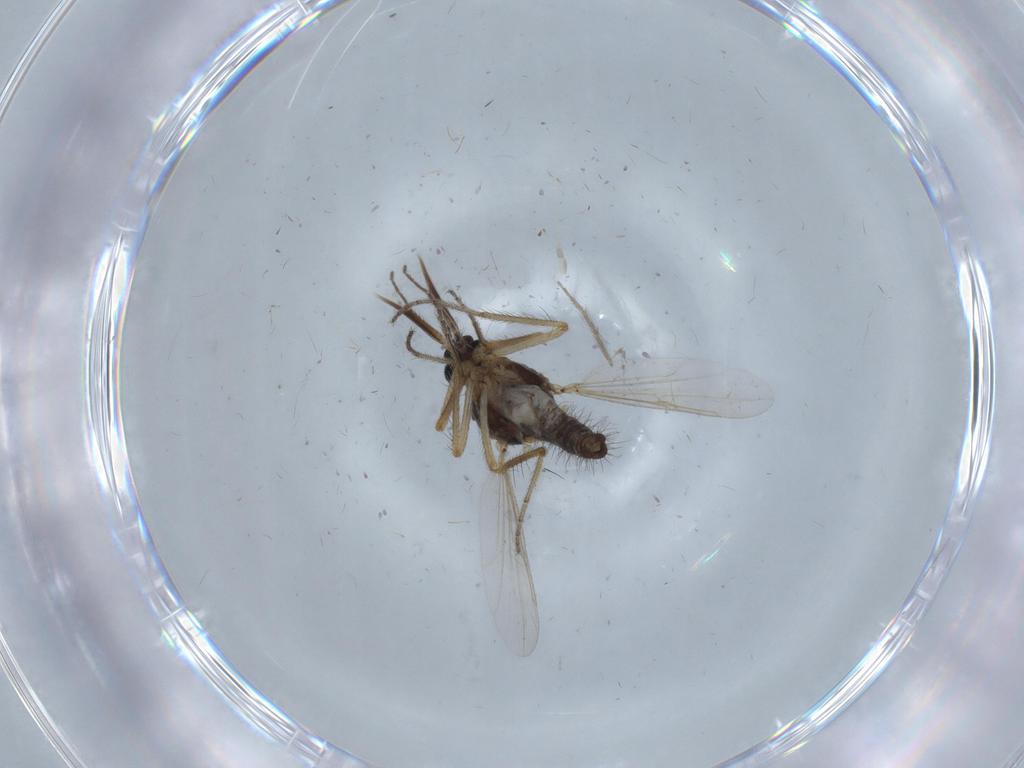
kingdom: Animalia
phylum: Arthropoda
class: Insecta
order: Diptera
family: Ceratopogonidae
